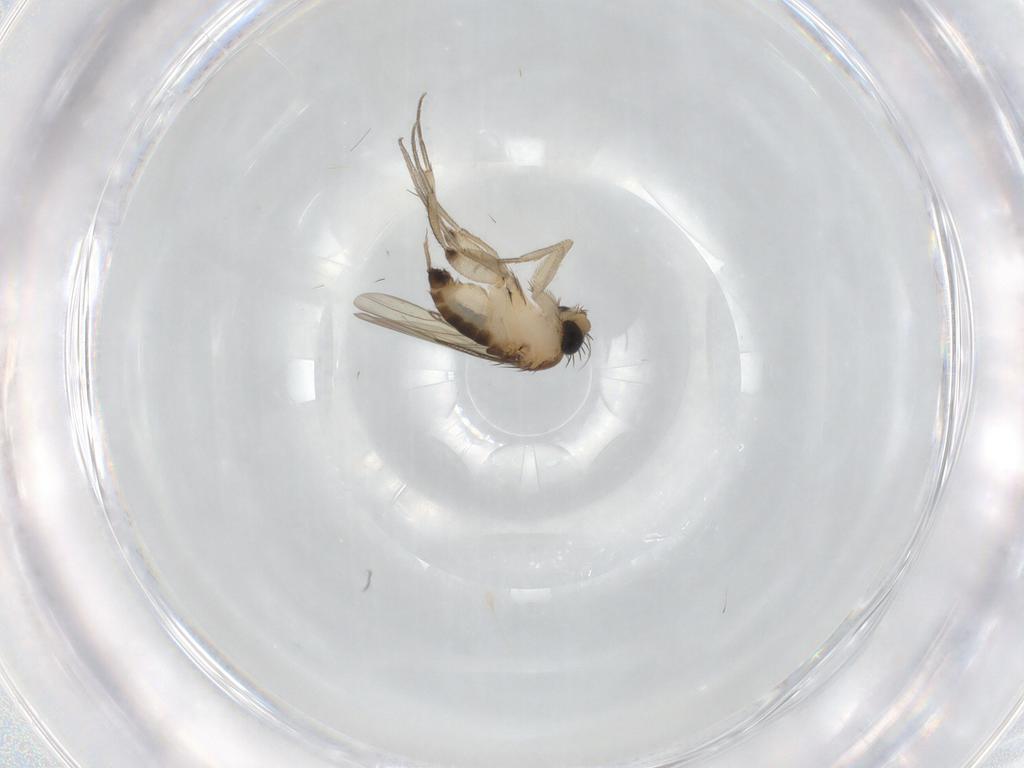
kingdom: Animalia
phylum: Arthropoda
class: Insecta
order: Diptera
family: Phoridae
